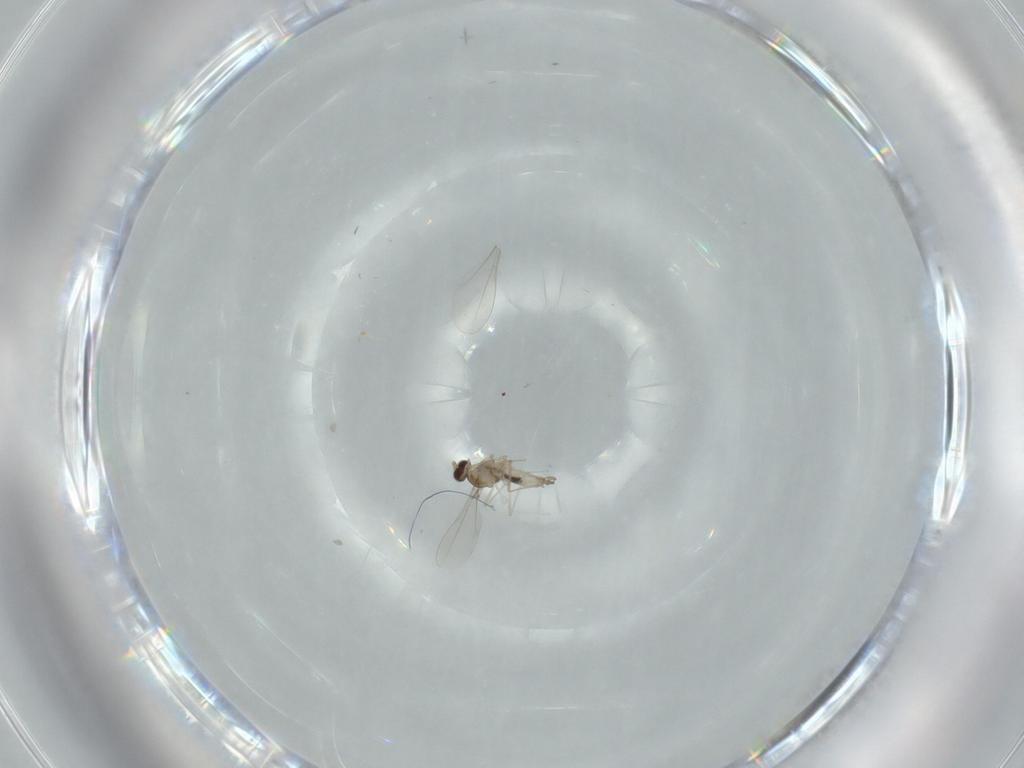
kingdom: Animalia
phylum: Arthropoda
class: Insecta
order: Diptera
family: Cecidomyiidae
